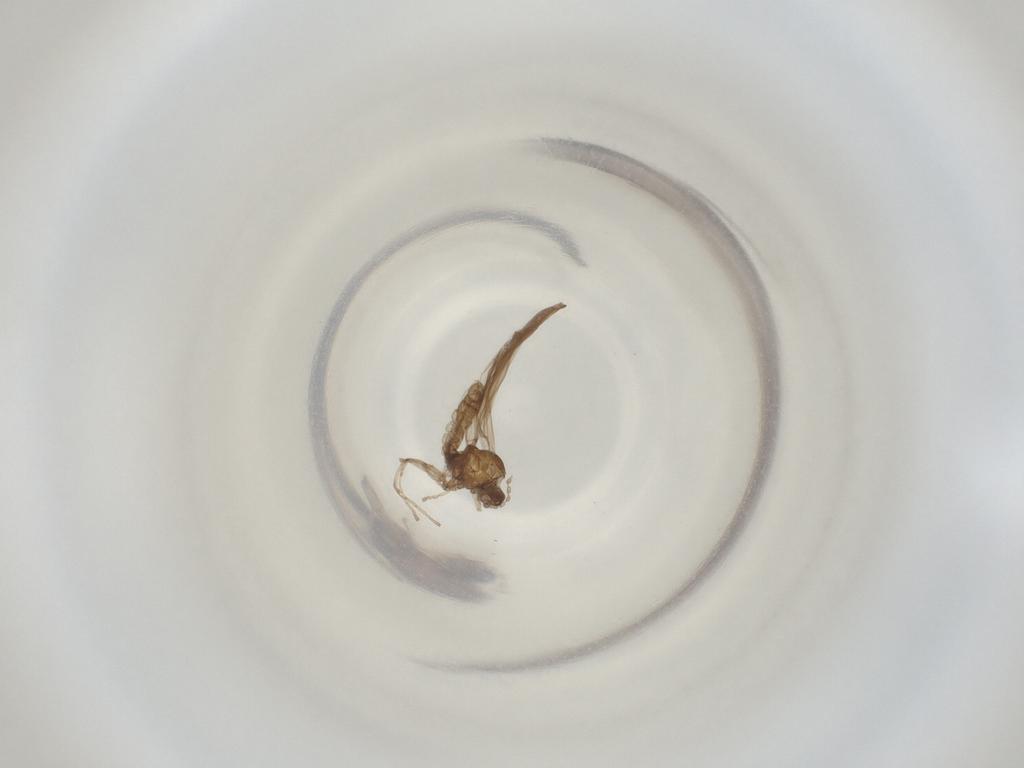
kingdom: Animalia
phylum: Arthropoda
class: Insecta
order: Diptera
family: Cecidomyiidae
